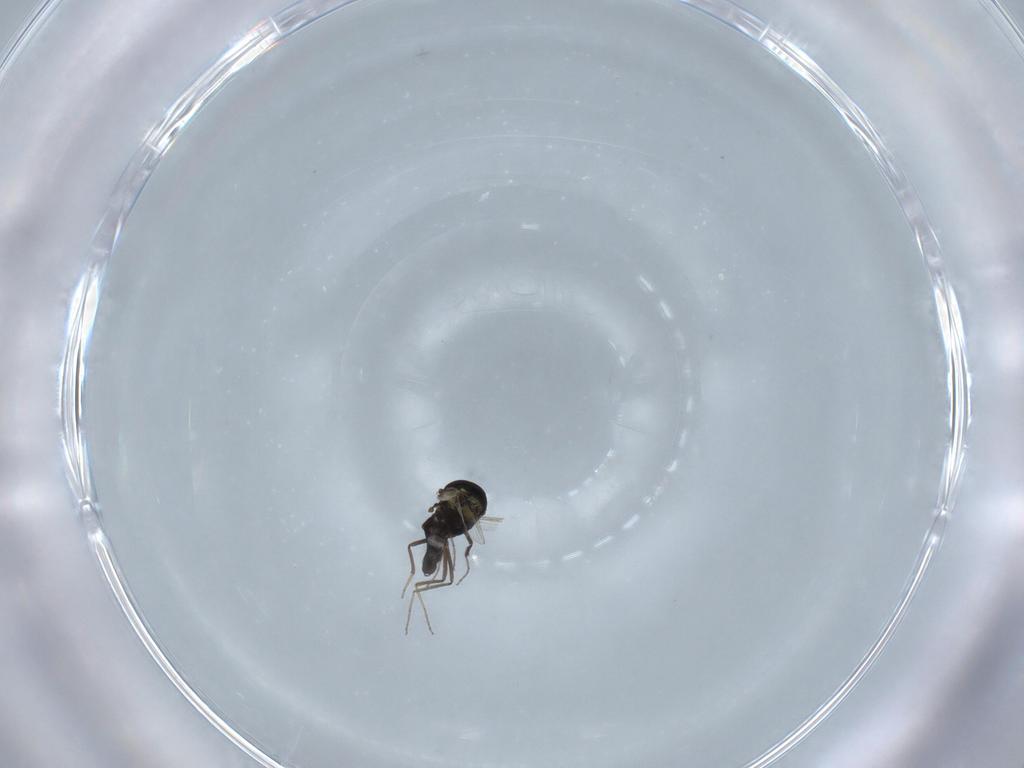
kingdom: Animalia
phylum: Arthropoda
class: Insecta
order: Diptera
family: Ceratopogonidae
